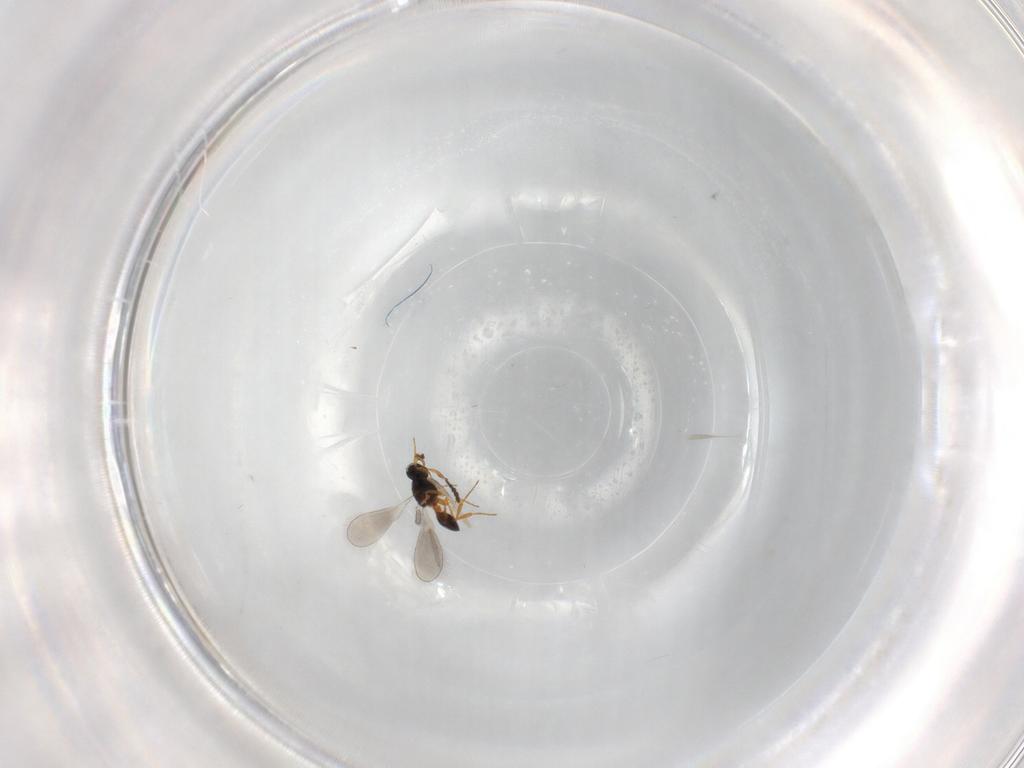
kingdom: Animalia
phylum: Arthropoda
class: Insecta
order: Hymenoptera
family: Platygastridae
